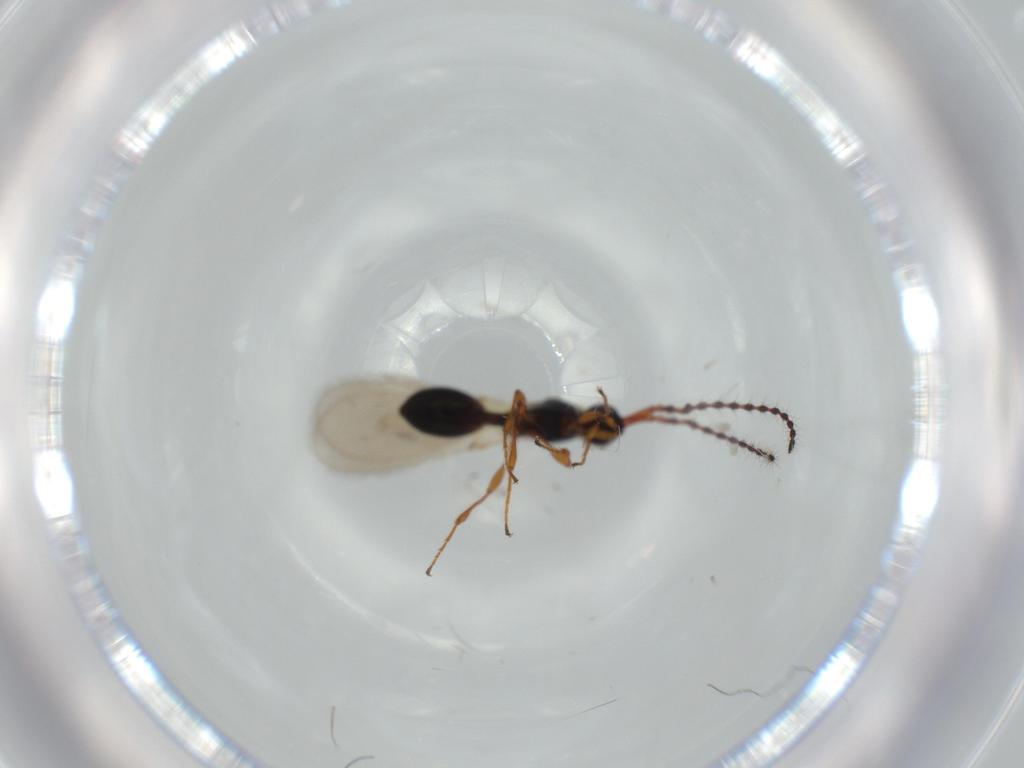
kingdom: Animalia
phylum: Arthropoda
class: Insecta
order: Hymenoptera
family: Diapriidae
